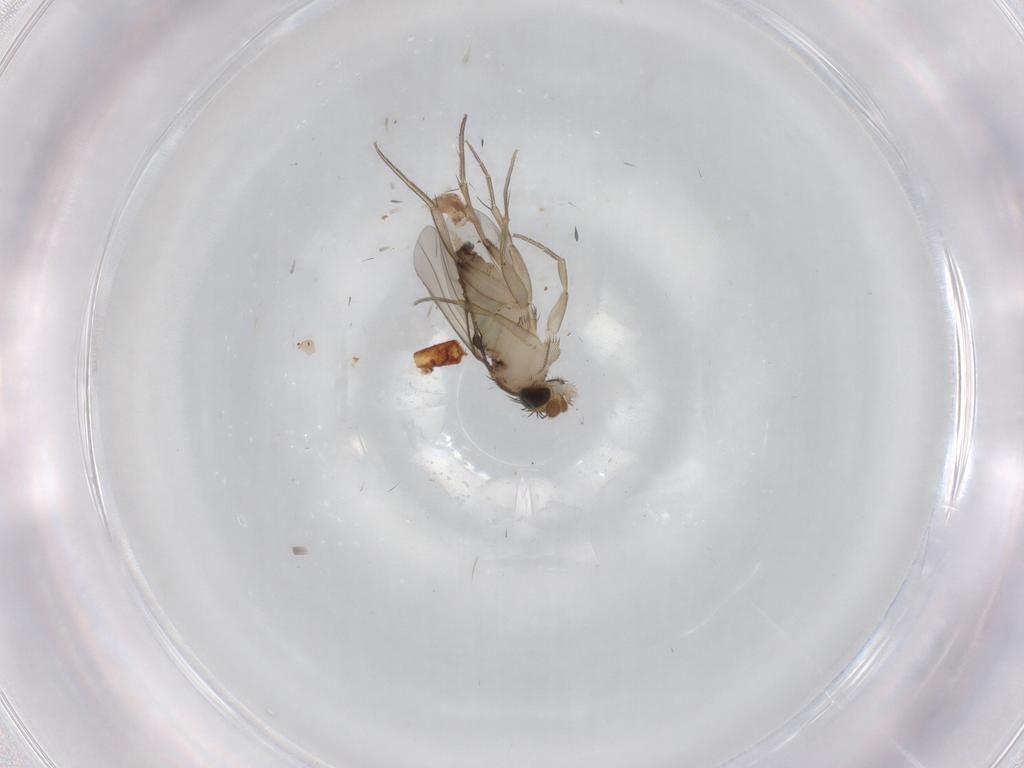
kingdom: Animalia
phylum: Arthropoda
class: Insecta
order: Diptera
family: Phoridae
